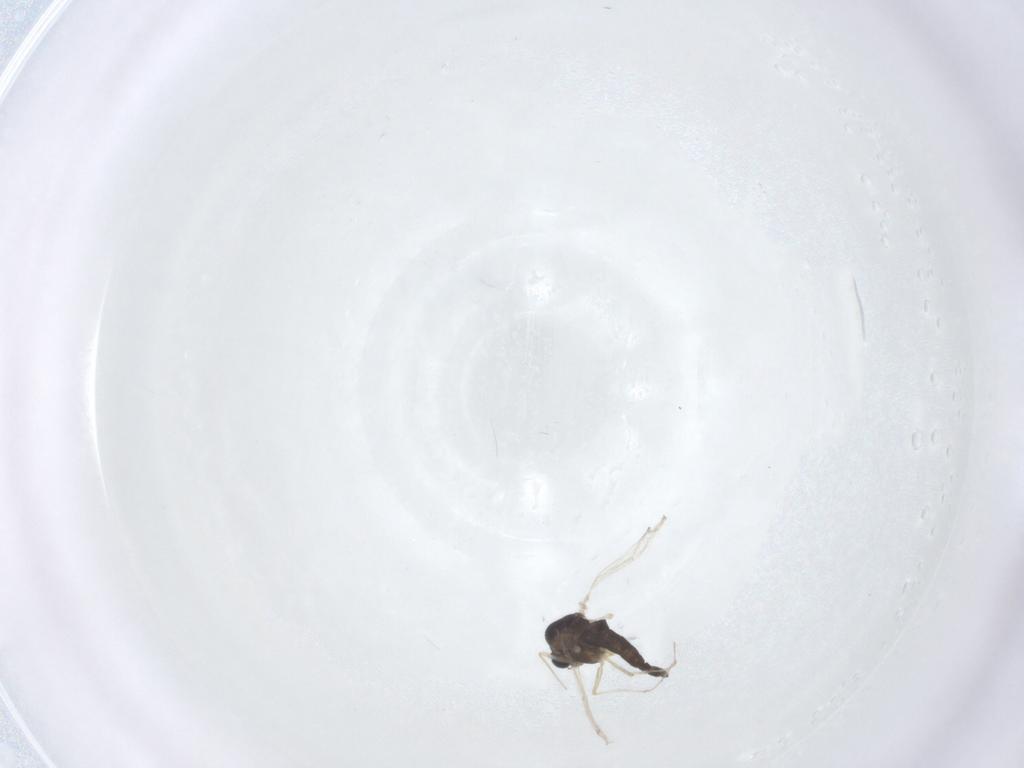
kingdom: Animalia
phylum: Arthropoda
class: Insecta
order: Diptera
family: Chironomidae
